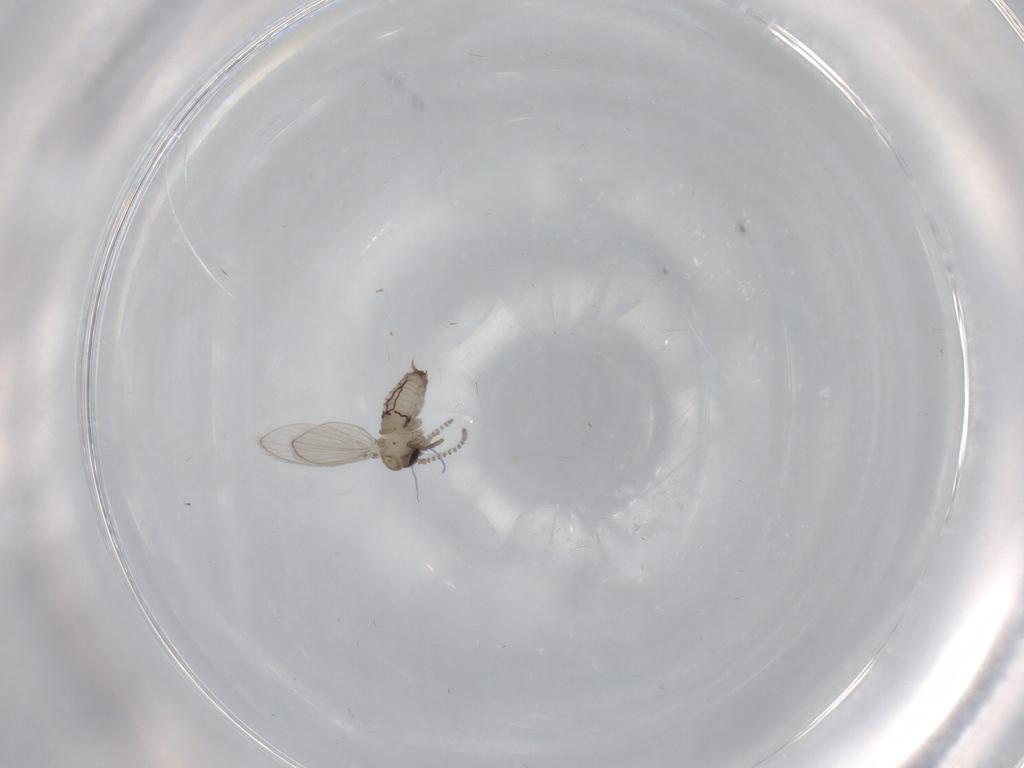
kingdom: Animalia
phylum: Arthropoda
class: Insecta
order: Diptera
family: Psychodidae
